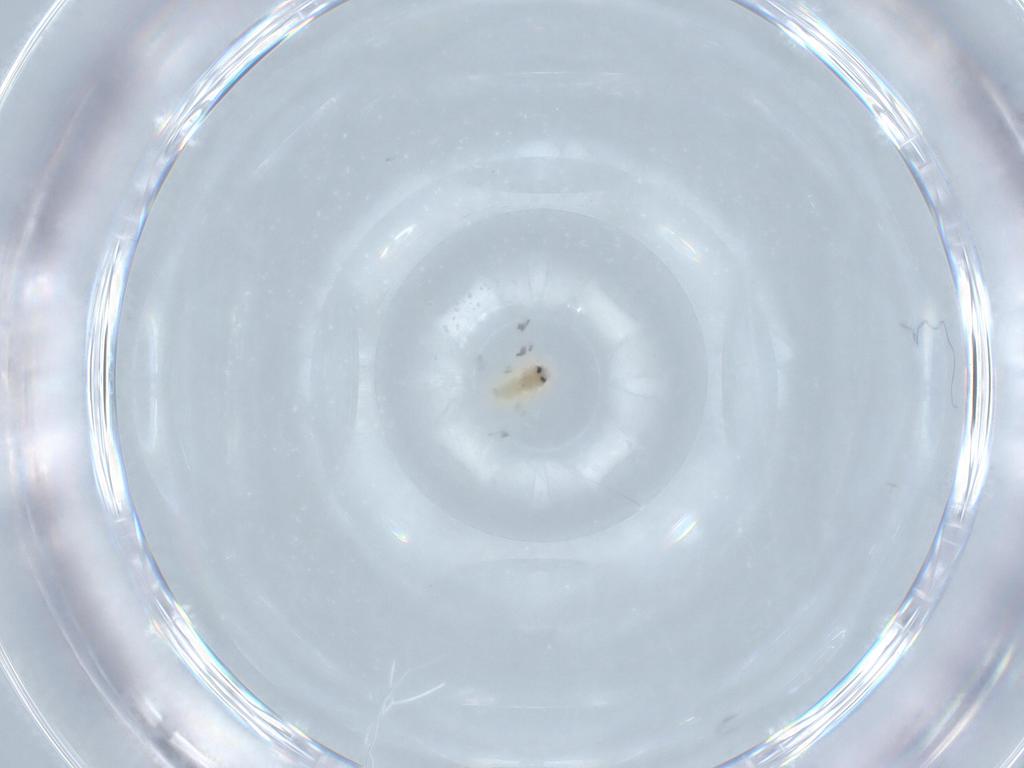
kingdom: Animalia
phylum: Arthropoda
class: Insecta
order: Hemiptera
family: Aleyrodidae
